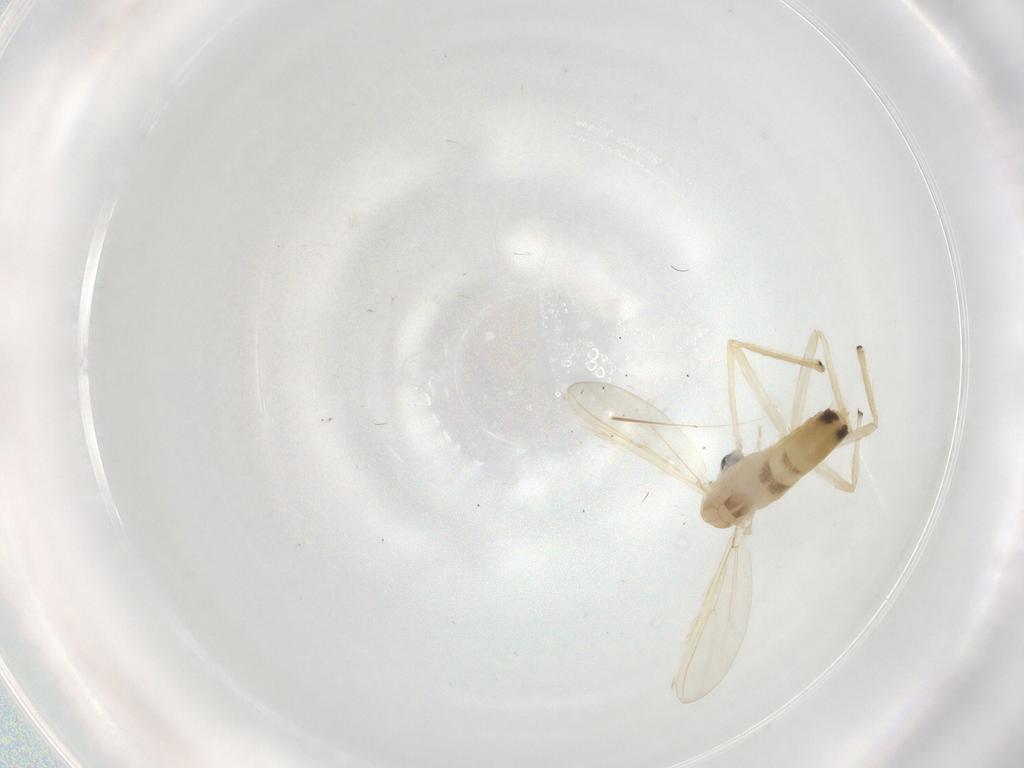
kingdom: Animalia
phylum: Arthropoda
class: Insecta
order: Diptera
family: Chironomidae
